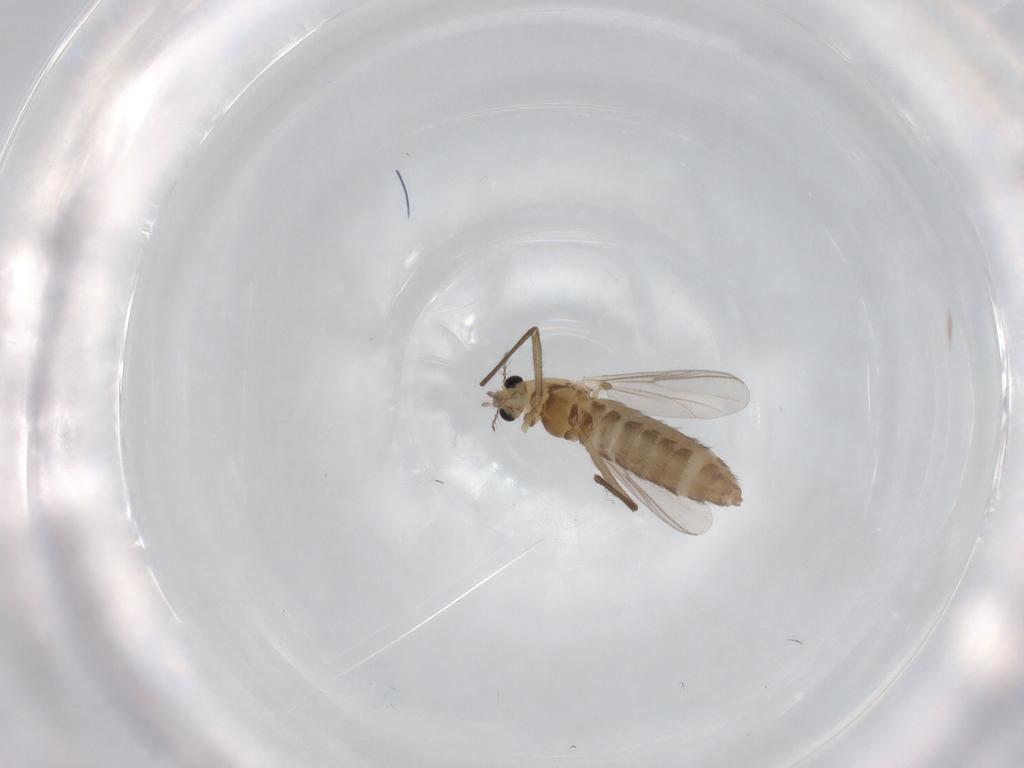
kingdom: Animalia
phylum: Arthropoda
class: Insecta
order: Diptera
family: Chironomidae
